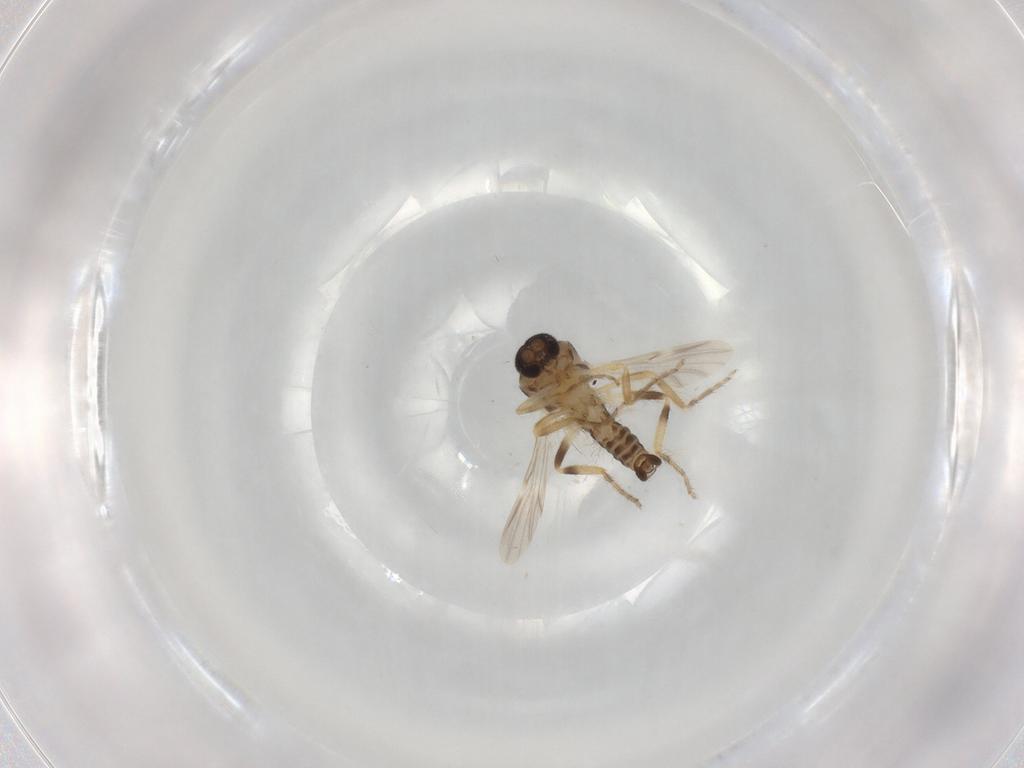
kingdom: Animalia
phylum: Arthropoda
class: Insecta
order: Diptera
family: Ceratopogonidae
